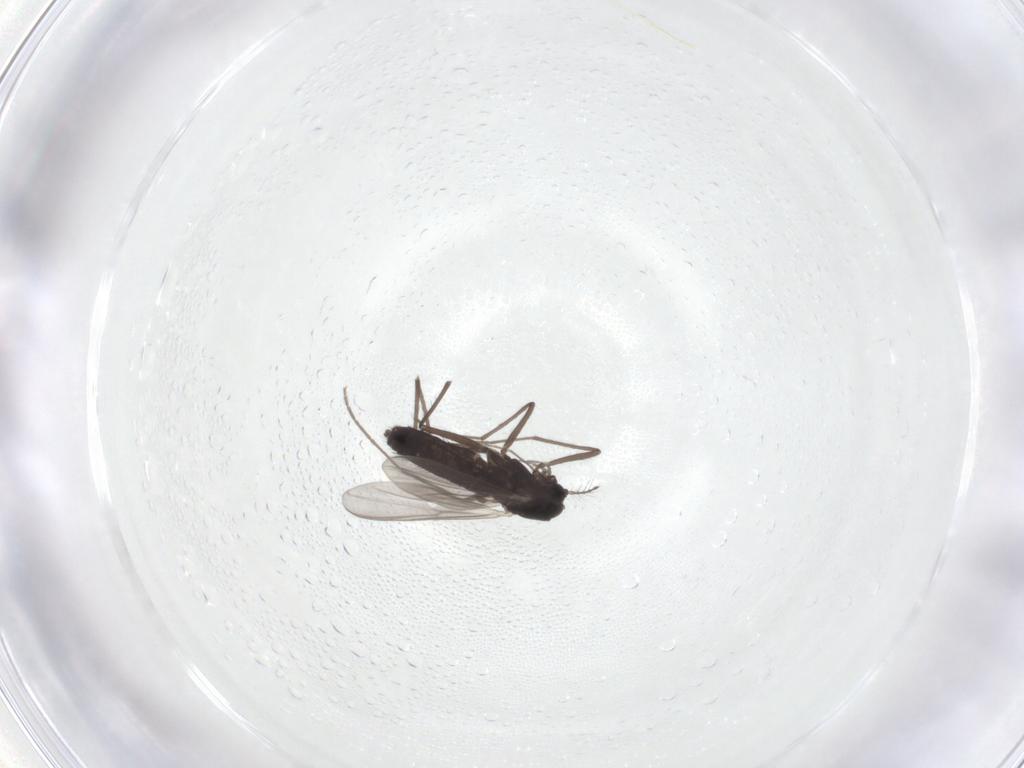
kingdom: Animalia
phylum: Arthropoda
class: Insecta
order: Diptera
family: Chironomidae
